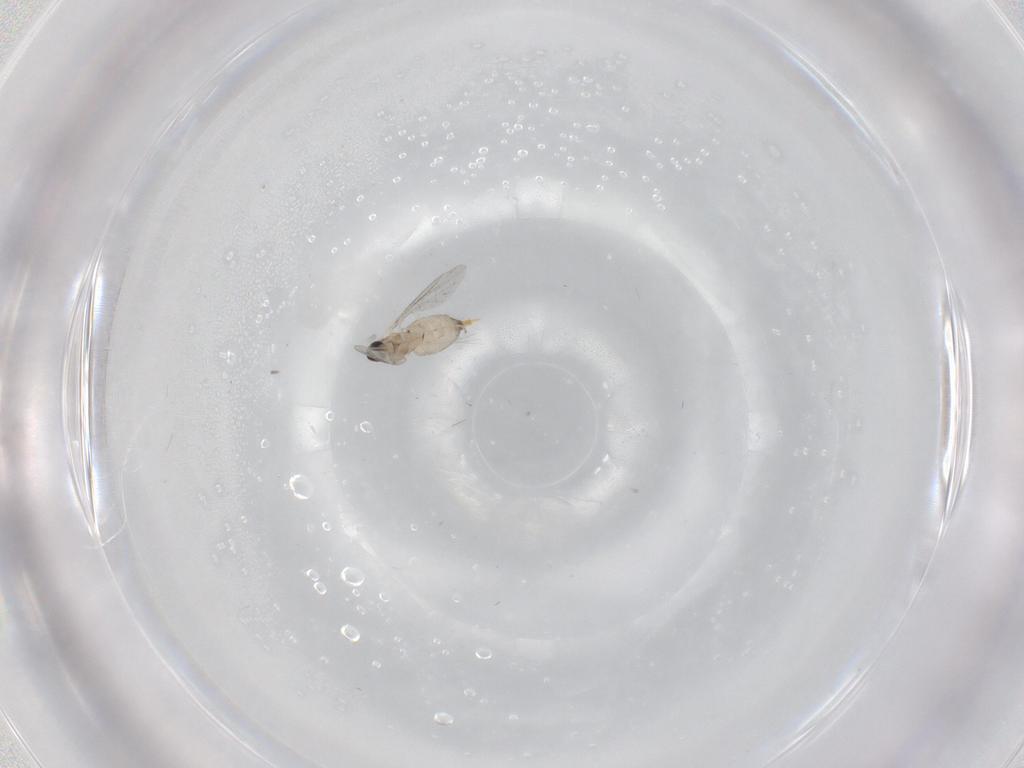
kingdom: Animalia
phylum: Arthropoda
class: Insecta
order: Diptera
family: Cecidomyiidae
